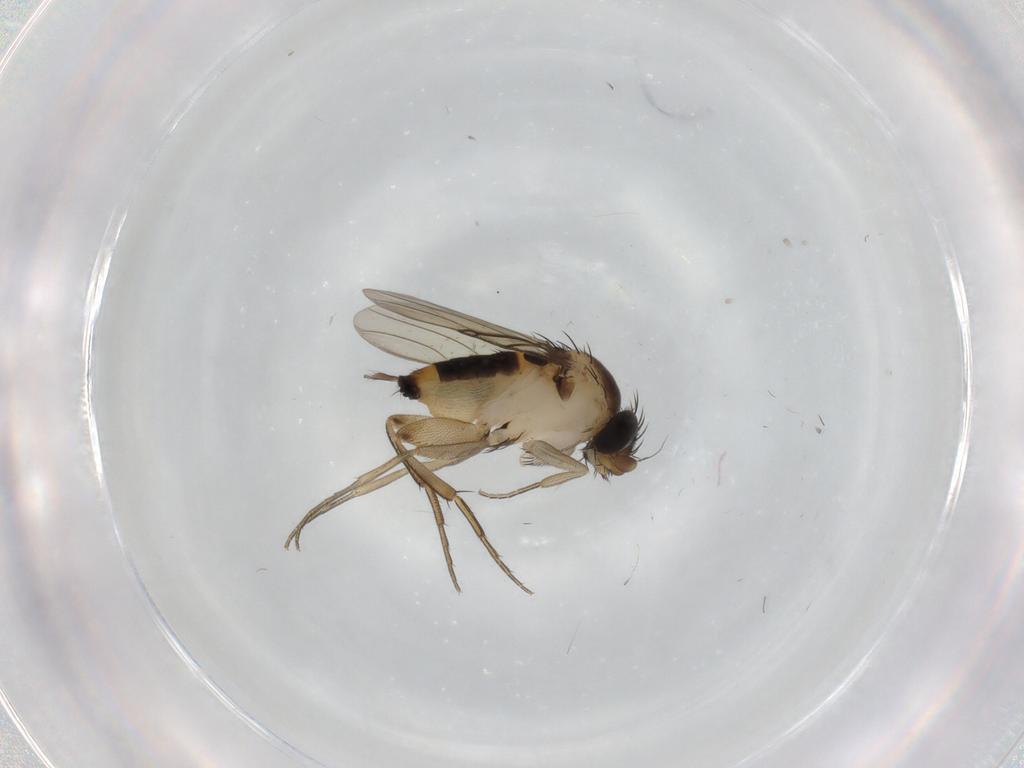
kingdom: Animalia
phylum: Arthropoda
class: Insecta
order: Diptera
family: Phoridae
